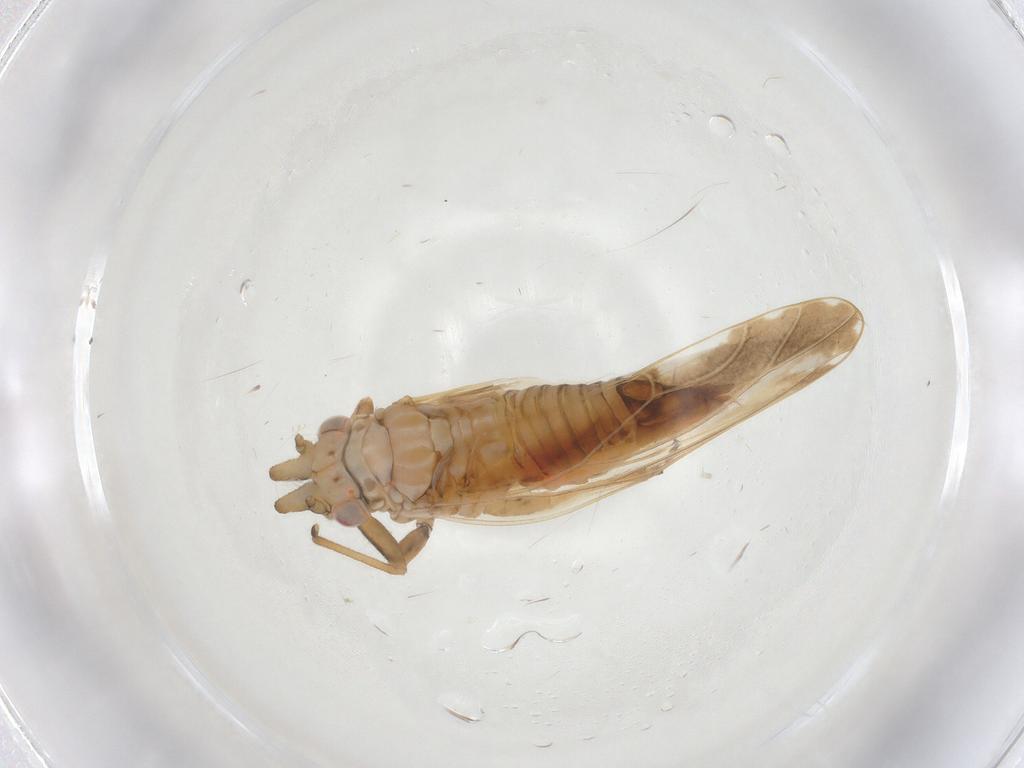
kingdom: Animalia
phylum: Arthropoda
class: Insecta
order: Hemiptera
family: Psyllidae
